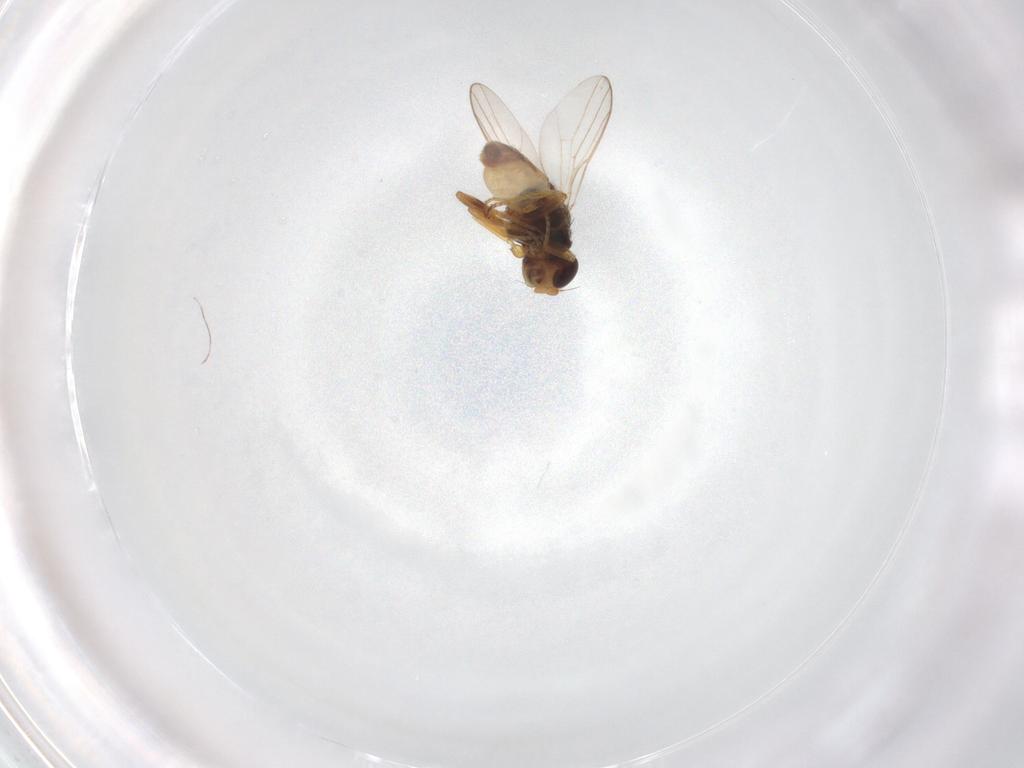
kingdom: Animalia
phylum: Arthropoda
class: Insecta
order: Diptera
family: Chloropidae
